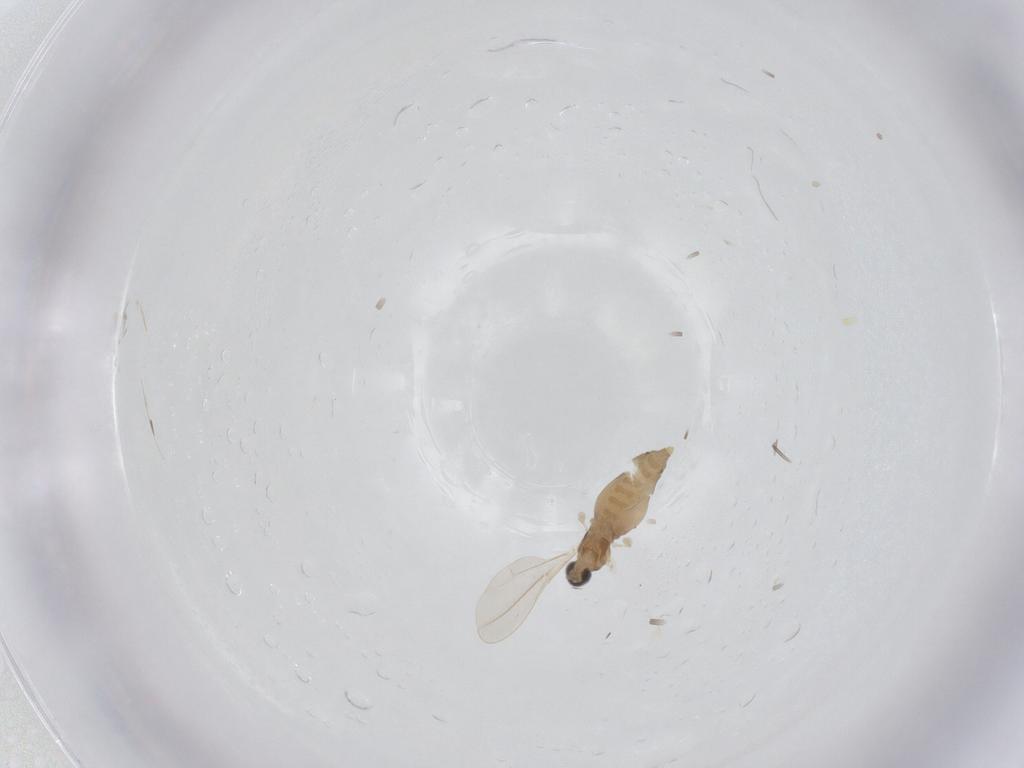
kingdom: Animalia
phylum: Arthropoda
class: Insecta
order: Diptera
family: Cecidomyiidae
